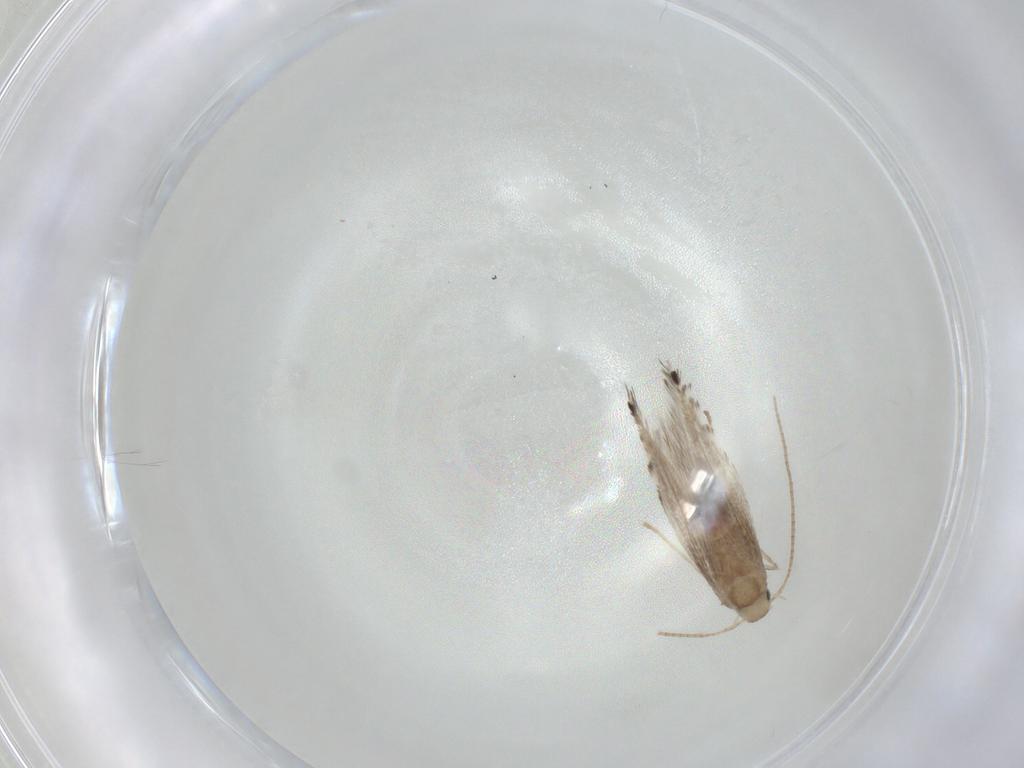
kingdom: Animalia
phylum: Arthropoda
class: Insecta
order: Lepidoptera
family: Gracillariidae
